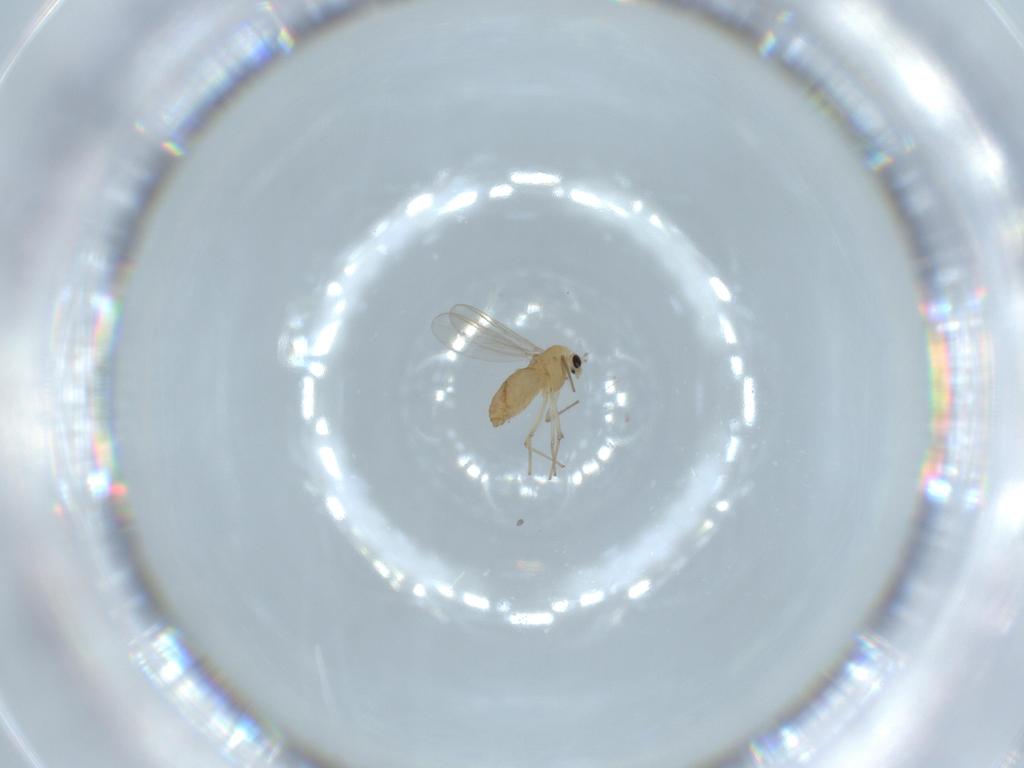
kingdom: Animalia
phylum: Arthropoda
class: Insecta
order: Diptera
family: Chironomidae
